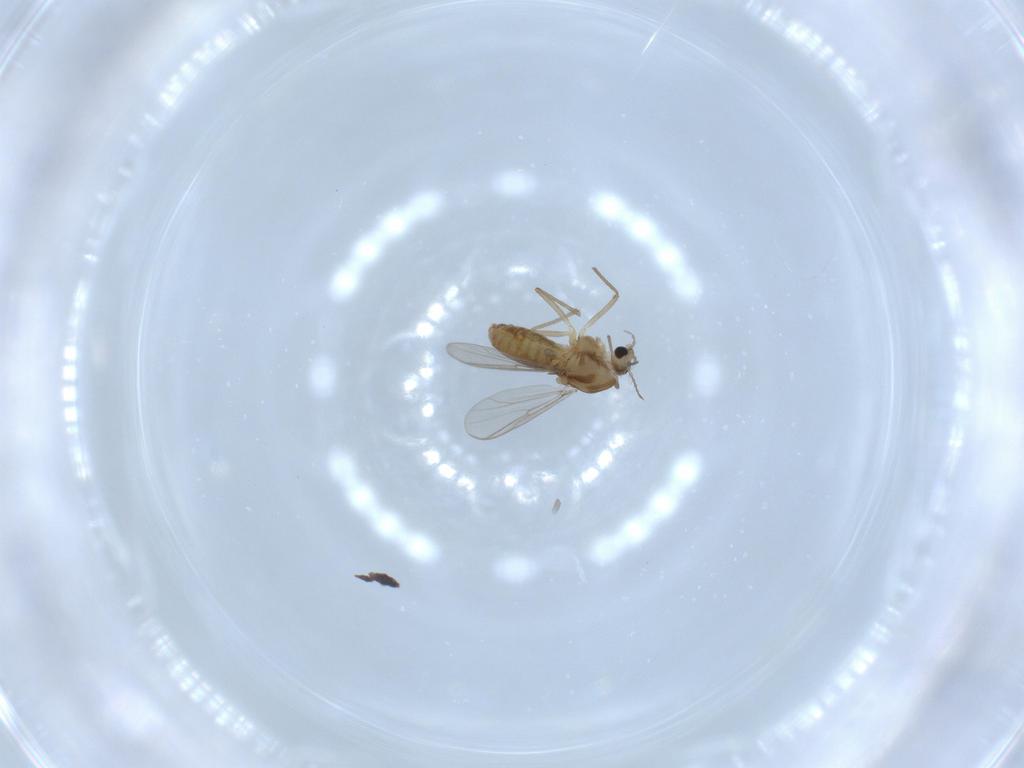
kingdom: Animalia
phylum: Arthropoda
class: Insecta
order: Diptera
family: Chironomidae
